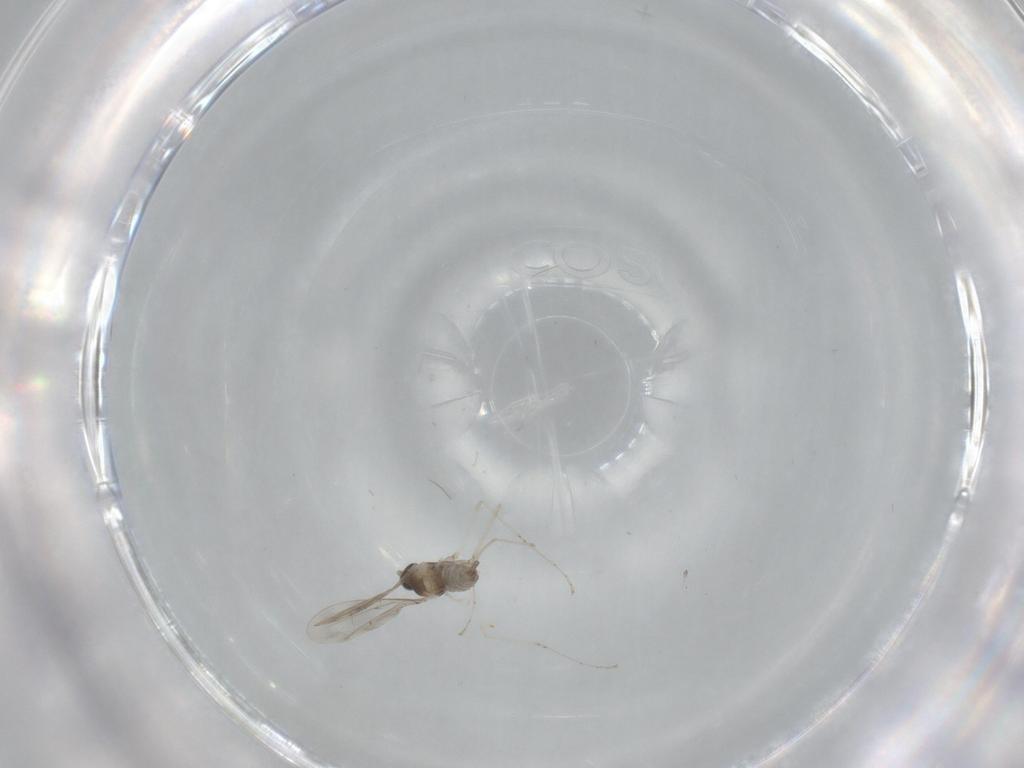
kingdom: Animalia
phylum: Arthropoda
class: Insecta
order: Diptera
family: Cecidomyiidae
